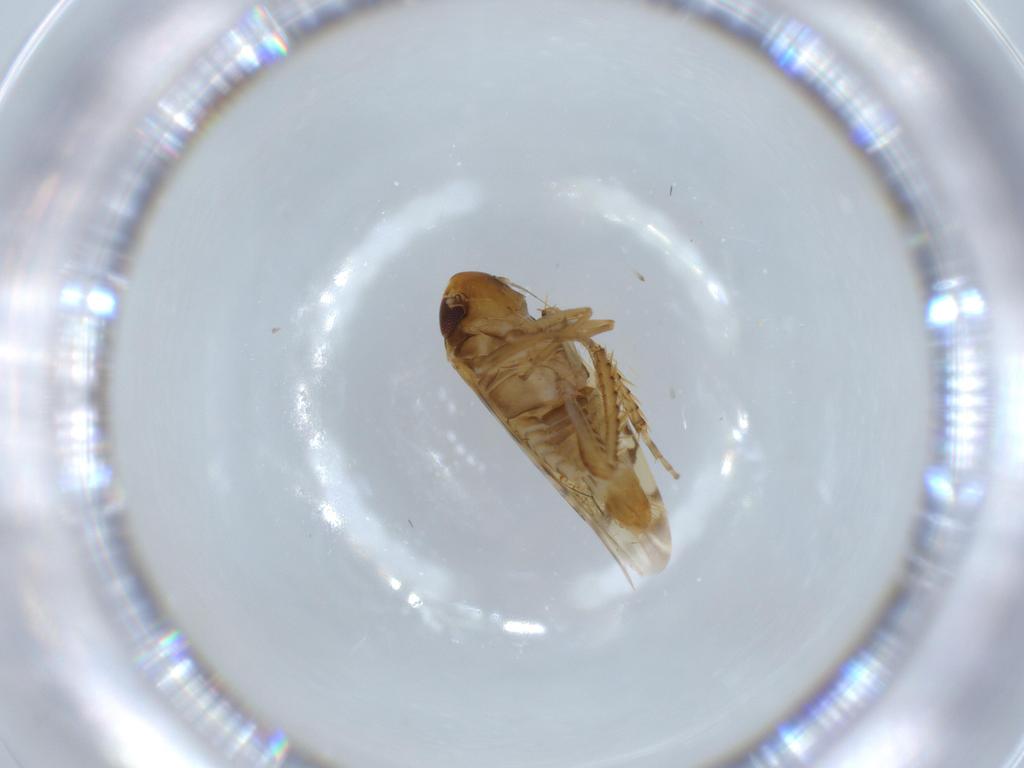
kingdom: Animalia
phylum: Arthropoda
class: Insecta
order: Hemiptera
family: Cicadellidae
